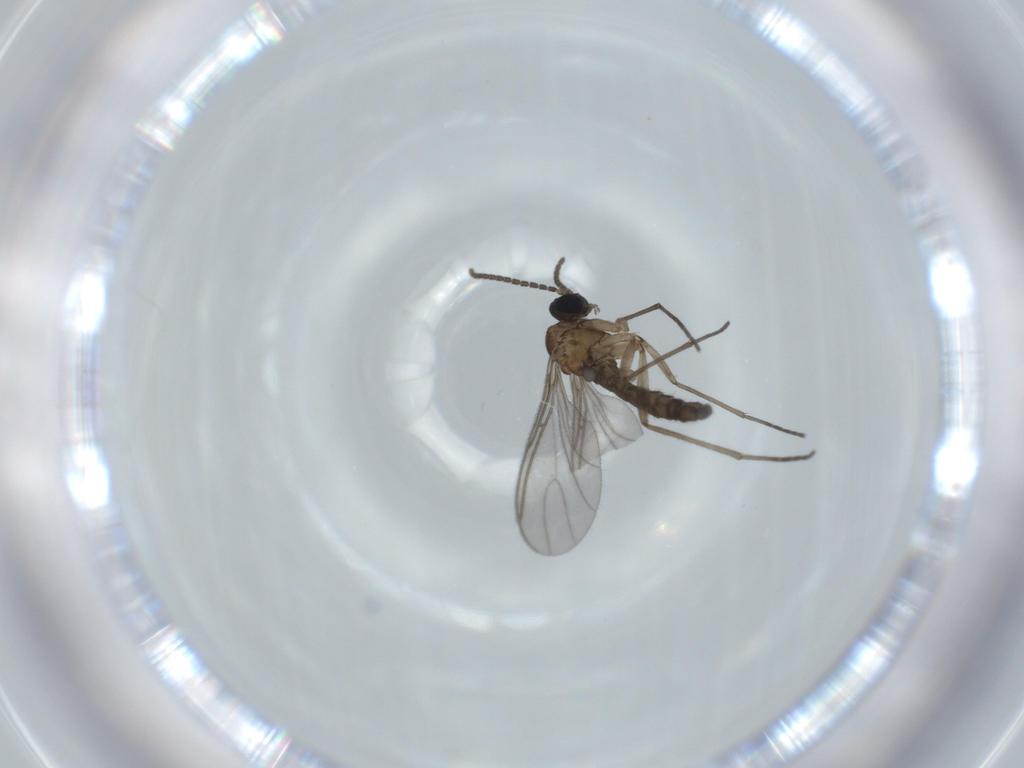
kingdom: Animalia
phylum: Arthropoda
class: Insecta
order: Diptera
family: Sciaridae
